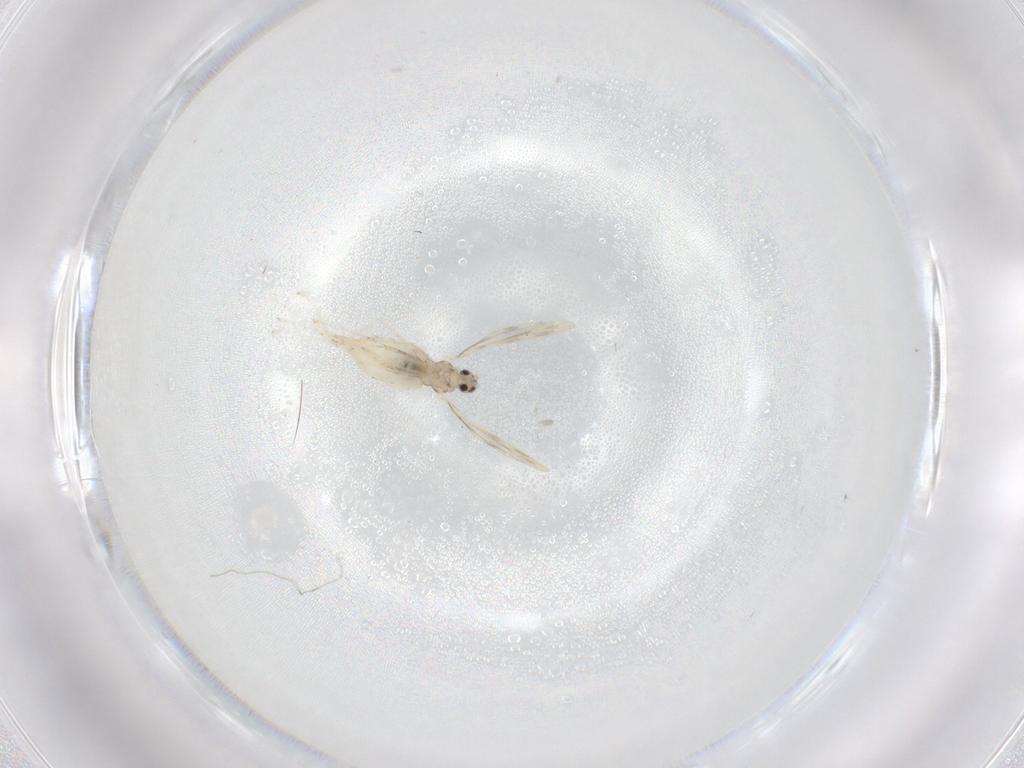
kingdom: Animalia
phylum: Arthropoda
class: Insecta
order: Diptera
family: Cecidomyiidae
